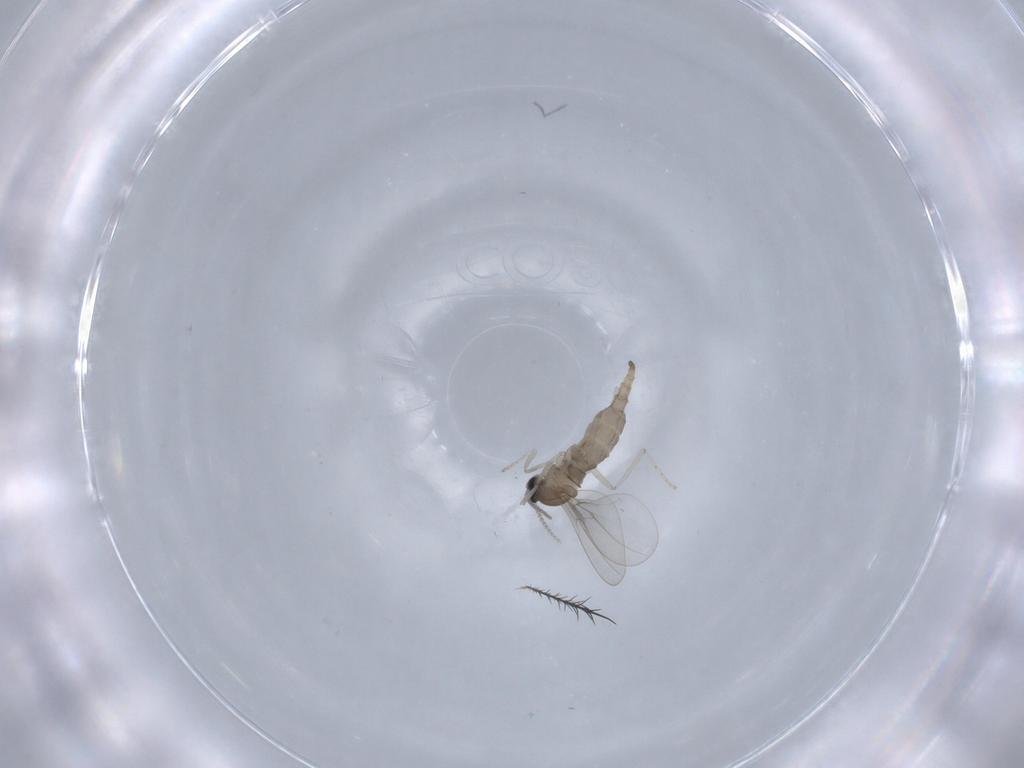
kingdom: Animalia
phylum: Arthropoda
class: Insecta
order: Diptera
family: Cecidomyiidae
